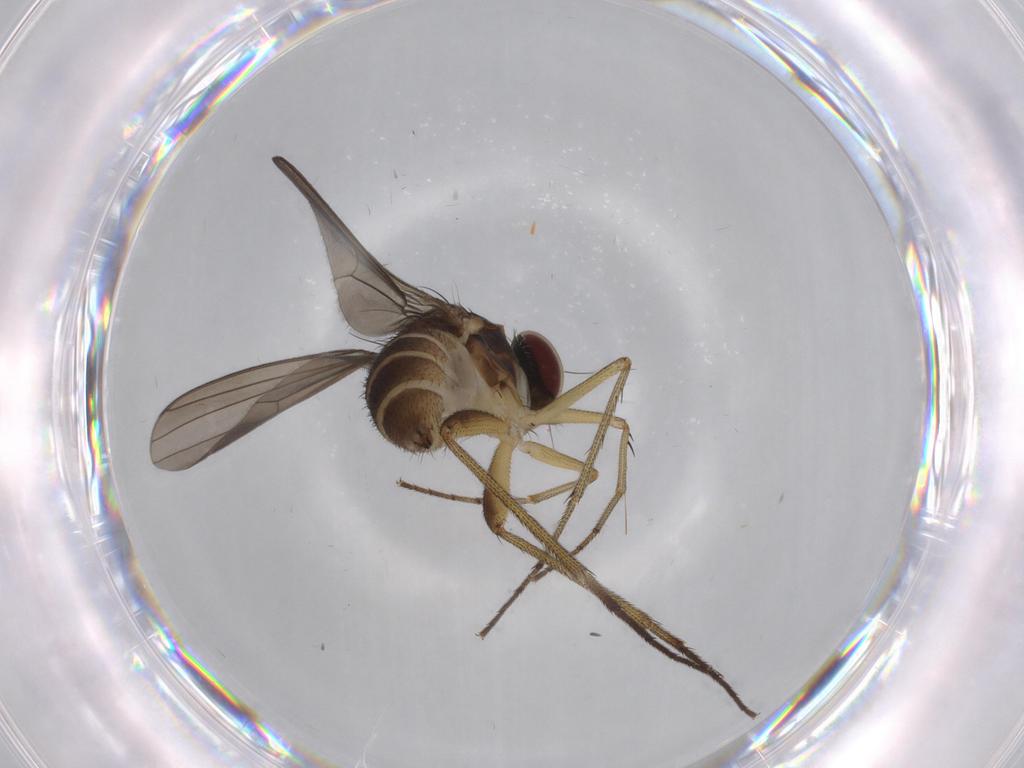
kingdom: Animalia
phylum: Arthropoda
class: Insecta
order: Diptera
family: Dolichopodidae
